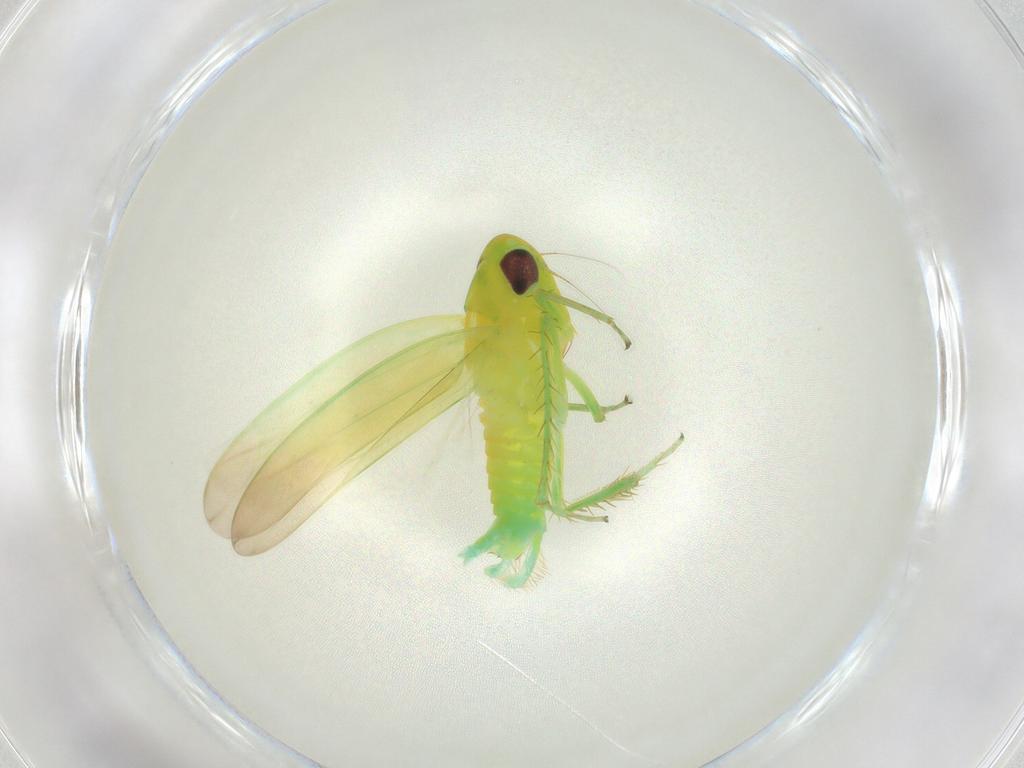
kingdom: Animalia
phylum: Arthropoda
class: Insecta
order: Hemiptera
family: Cicadellidae
